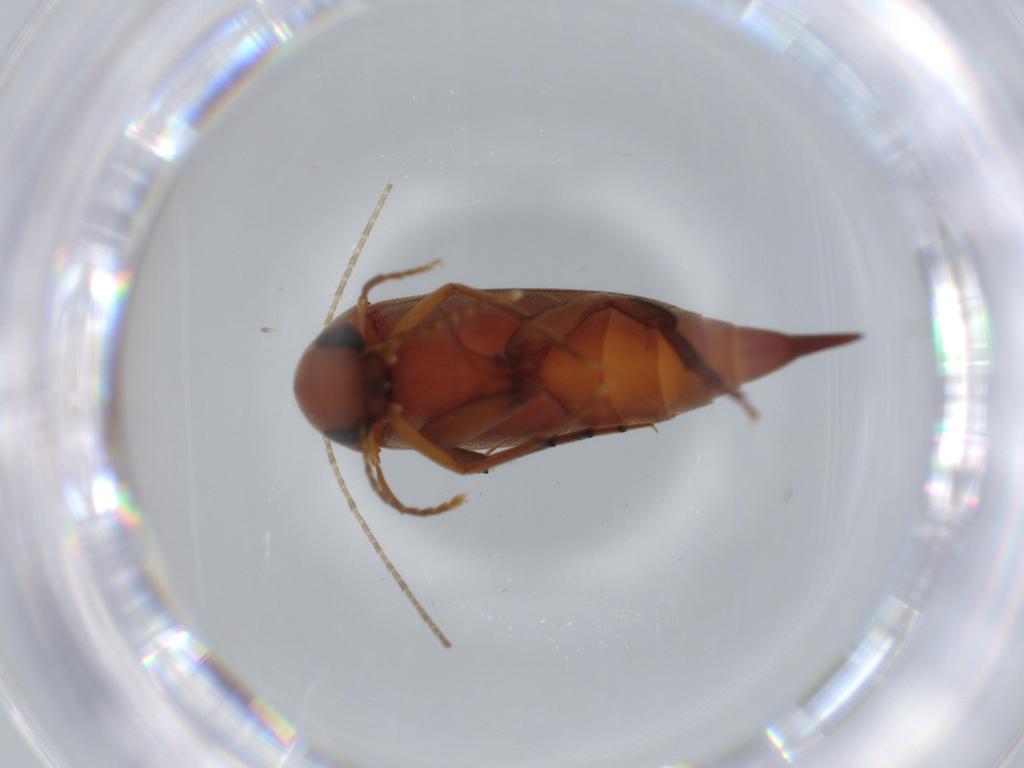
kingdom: Animalia
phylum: Arthropoda
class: Insecta
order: Coleoptera
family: Mordellidae
